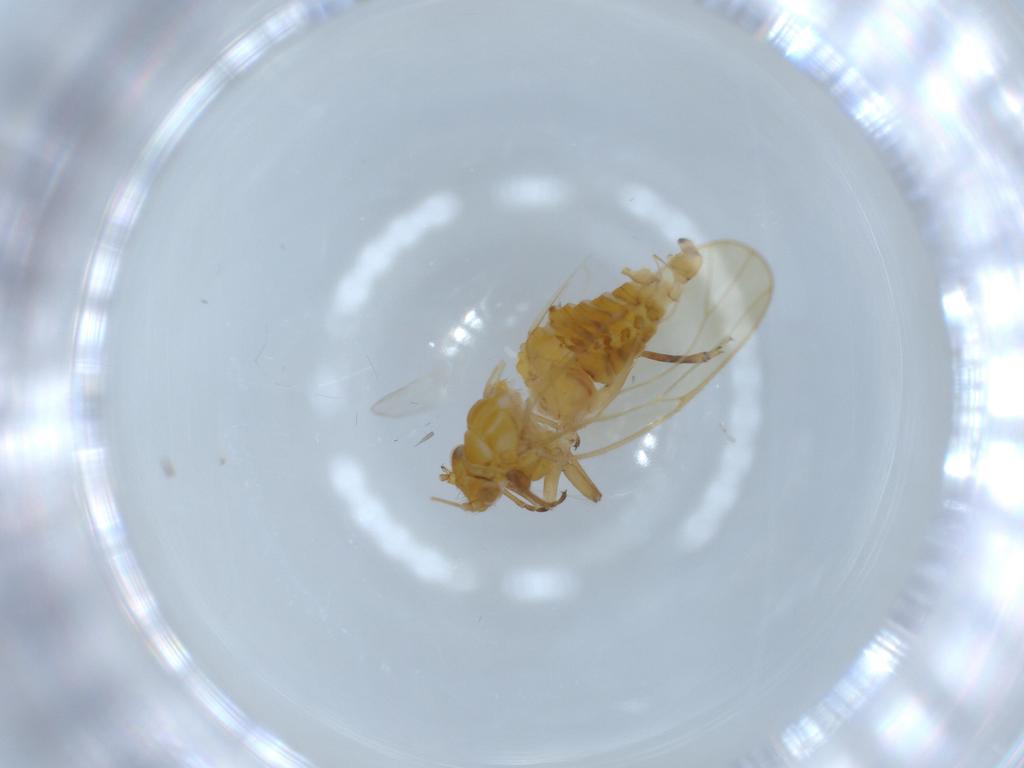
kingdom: Animalia
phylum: Arthropoda
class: Insecta
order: Hemiptera
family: Psyllidae
